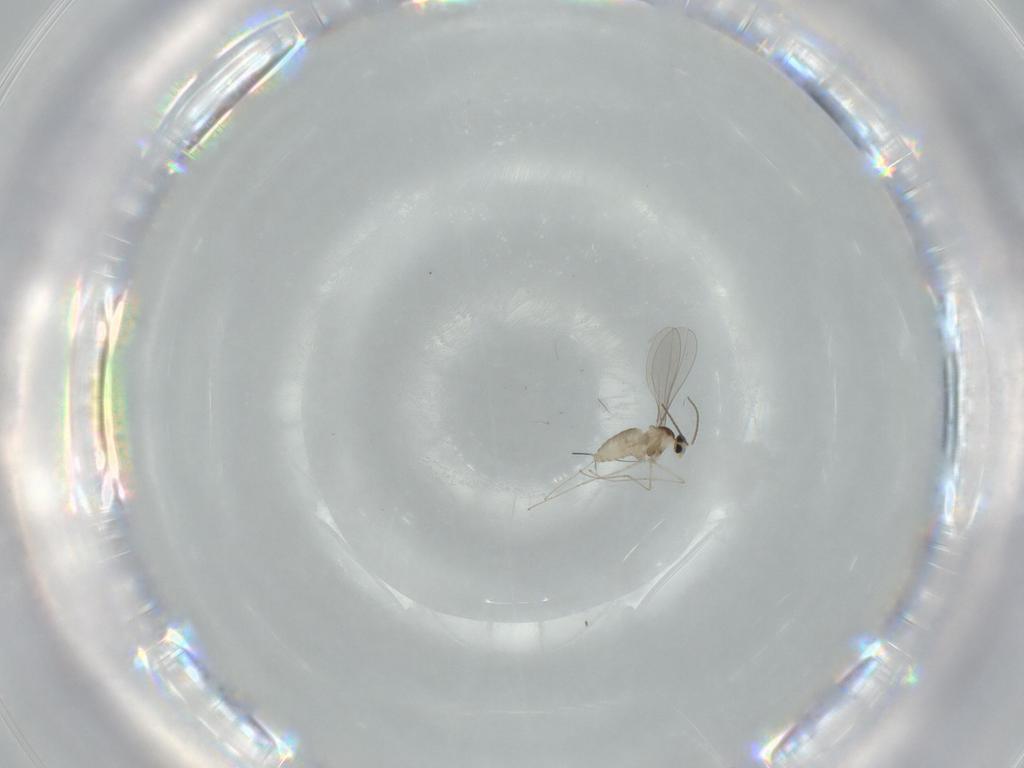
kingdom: Animalia
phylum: Arthropoda
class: Insecta
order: Diptera
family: Cecidomyiidae
